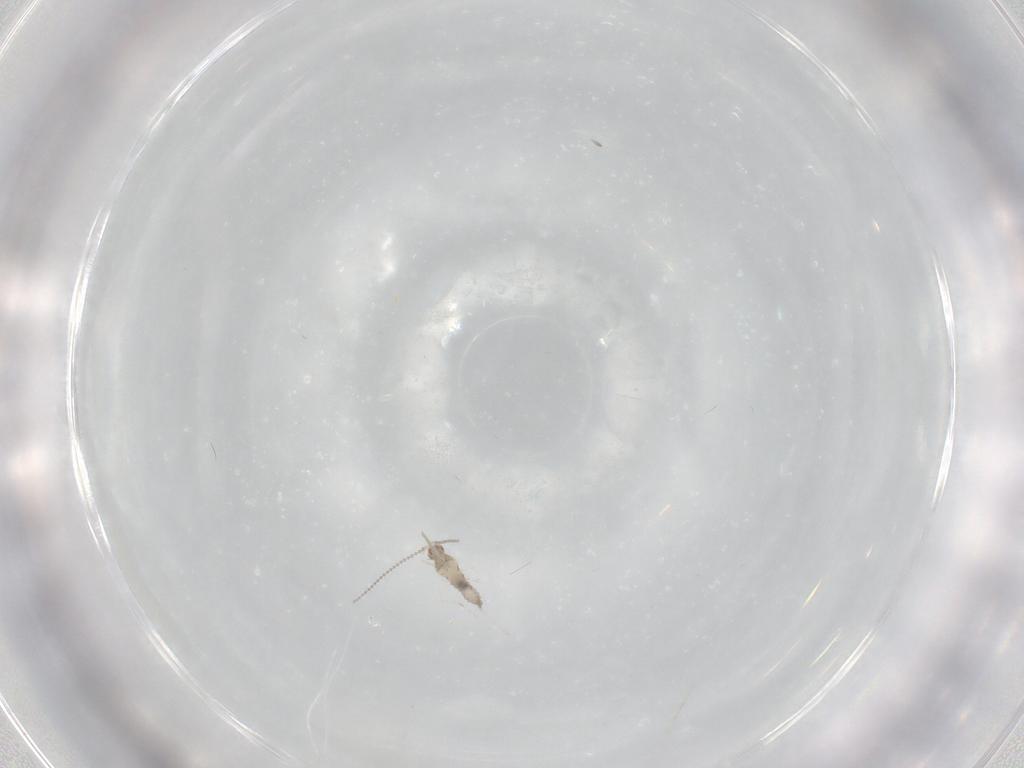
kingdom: Animalia
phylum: Arthropoda
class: Insecta
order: Diptera
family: Cecidomyiidae
